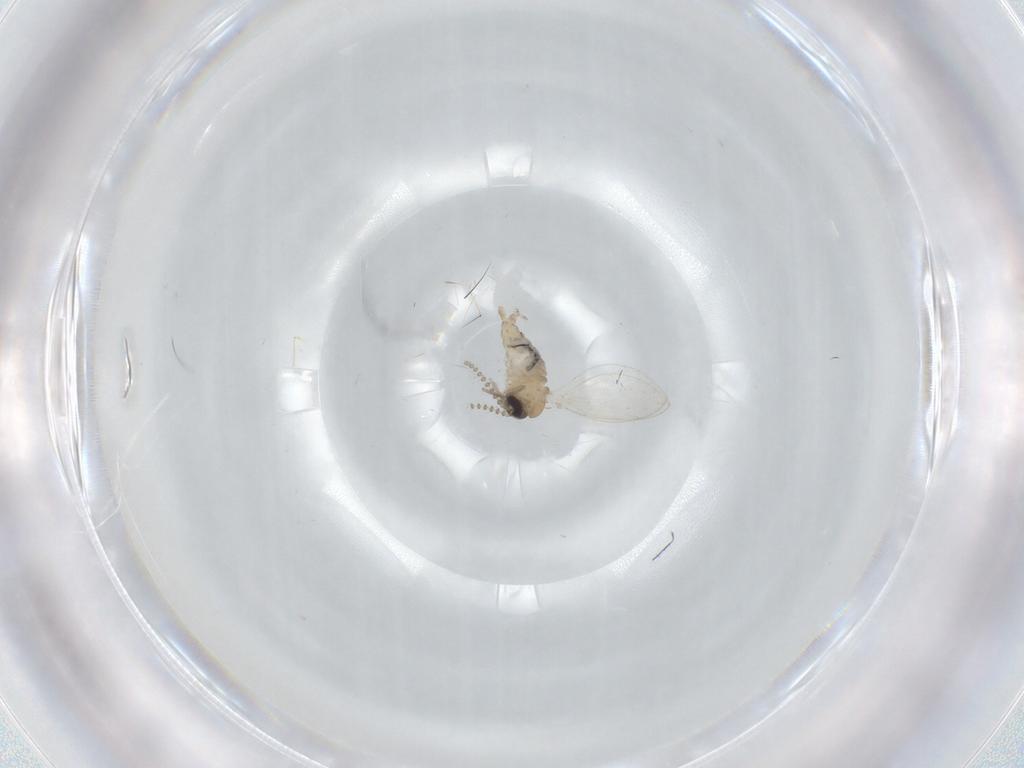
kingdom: Animalia
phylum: Arthropoda
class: Insecta
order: Diptera
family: Psychodidae
